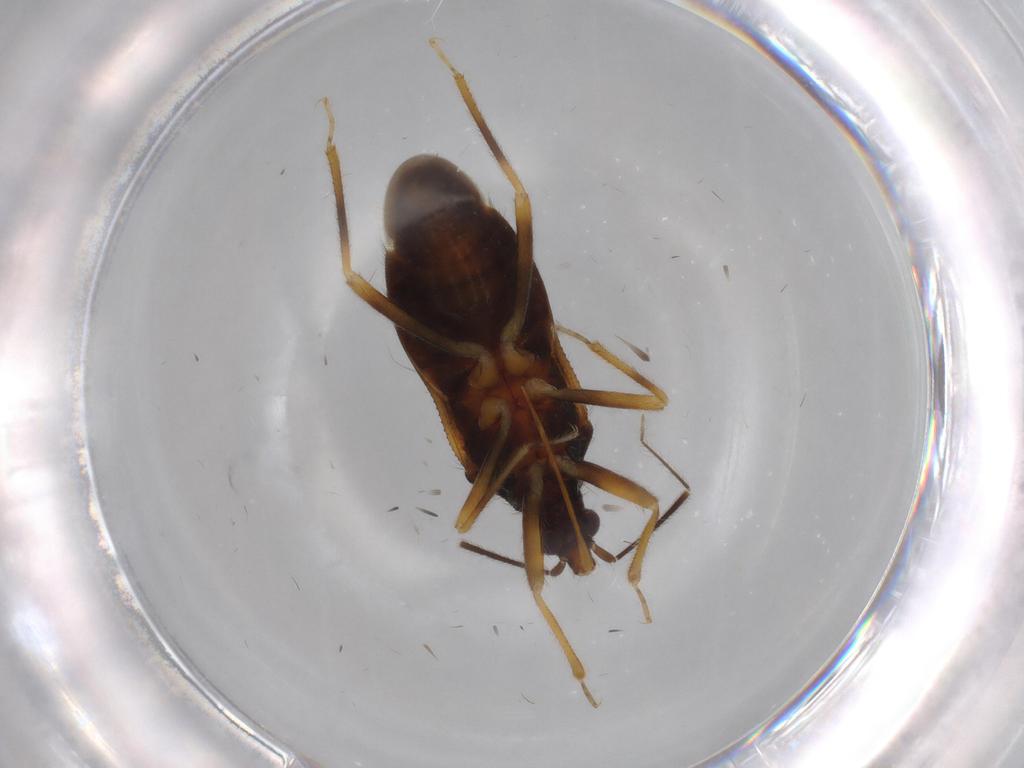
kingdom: Animalia
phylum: Arthropoda
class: Insecta
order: Hemiptera
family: Anthocoridae
